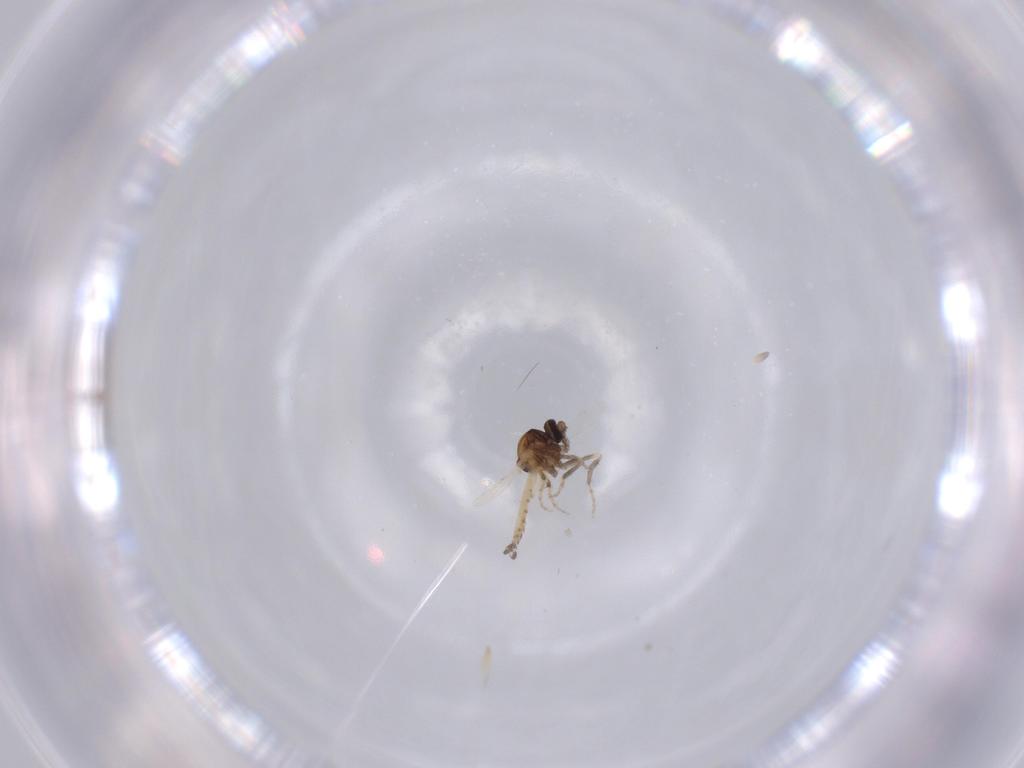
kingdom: Animalia
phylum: Arthropoda
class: Insecta
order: Diptera
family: Ceratopogonidae
